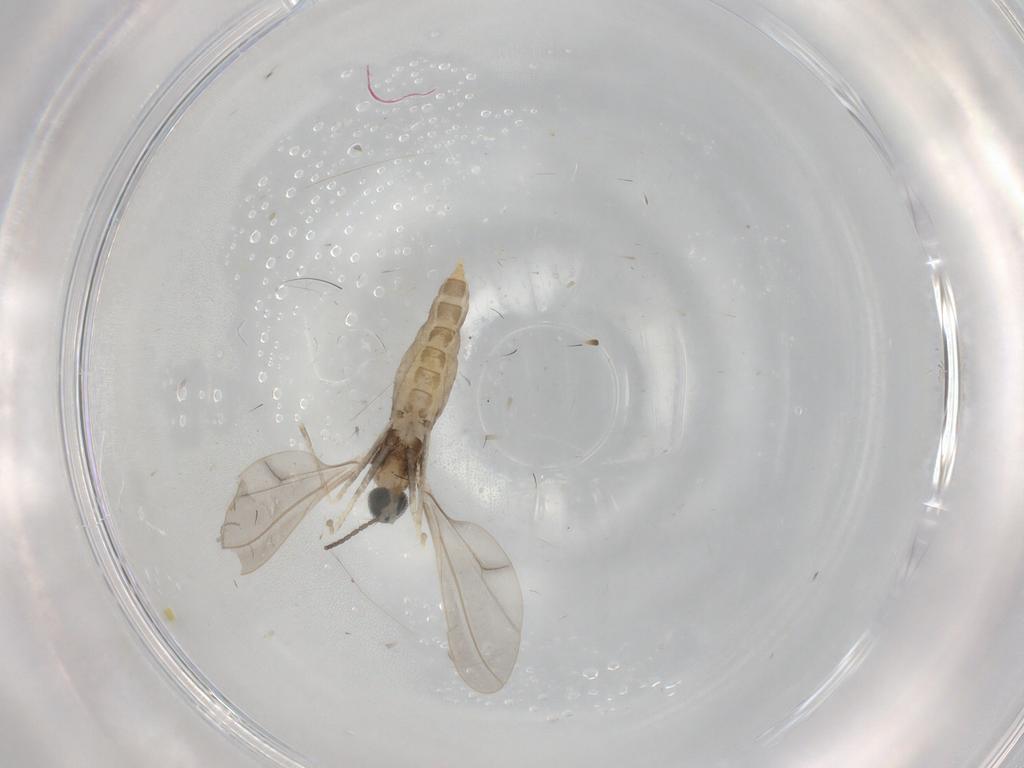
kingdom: Animalia
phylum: Arthropoda
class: Insecta
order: Diptera
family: Cecidomyiidae
